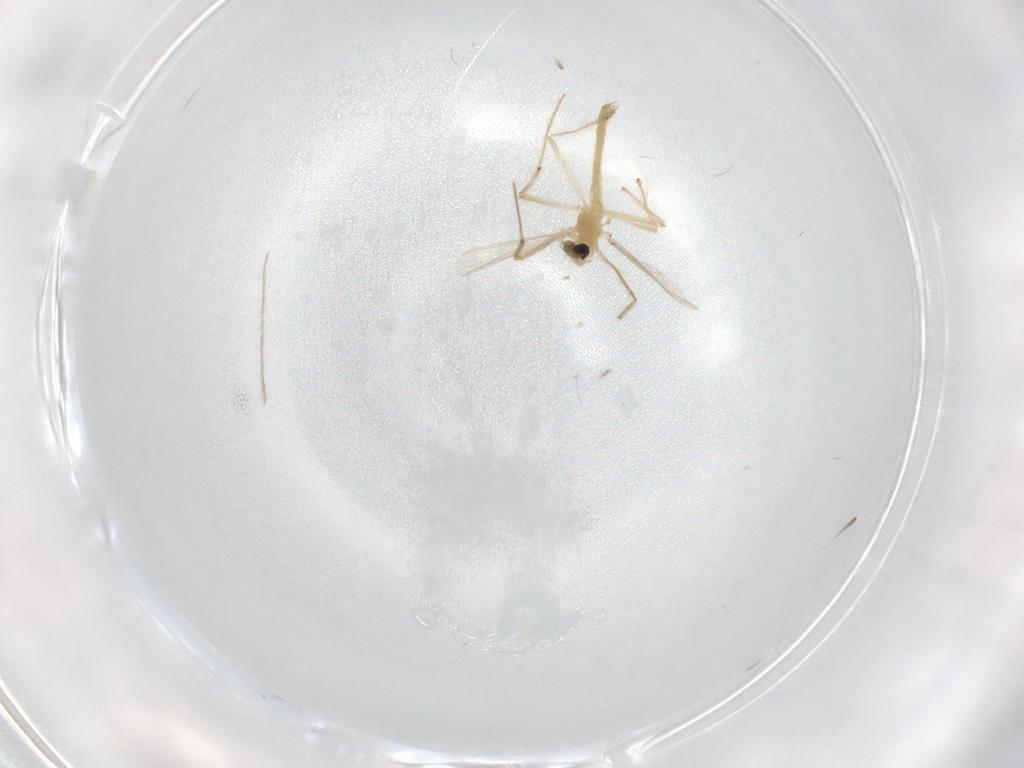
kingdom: Animalia
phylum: Arthropoda
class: Insecta
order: Diptera
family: Chironomidae
